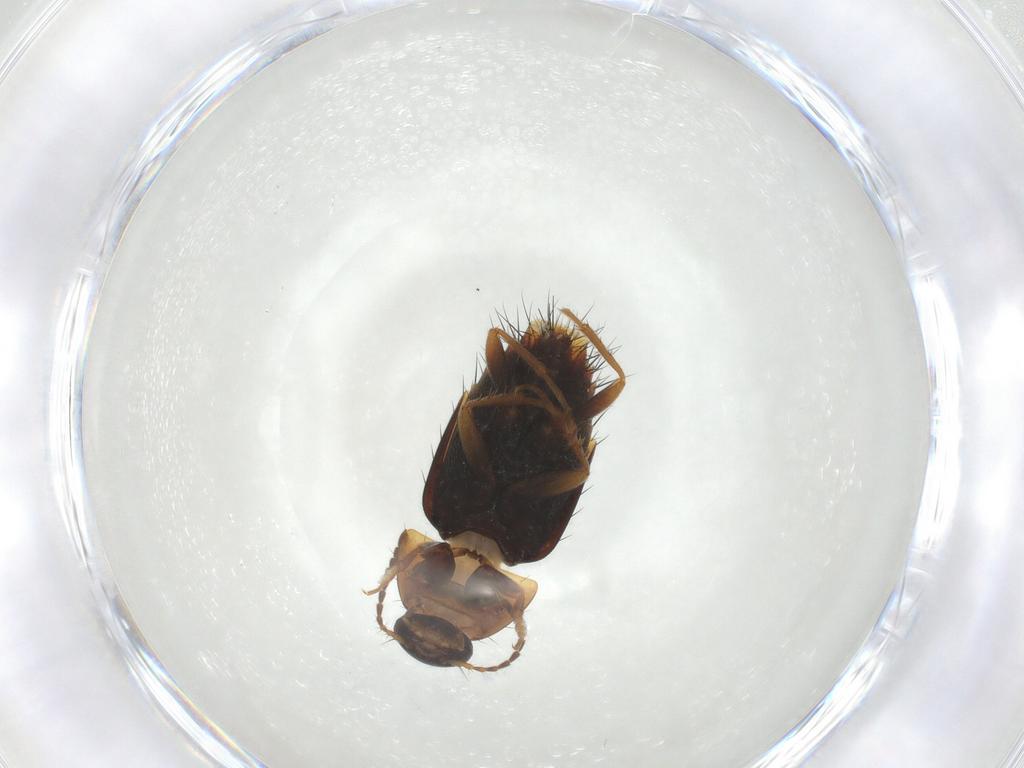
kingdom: Animalia
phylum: Arthropoda
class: Insecta
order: Coleoptera
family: Staphylinidae
